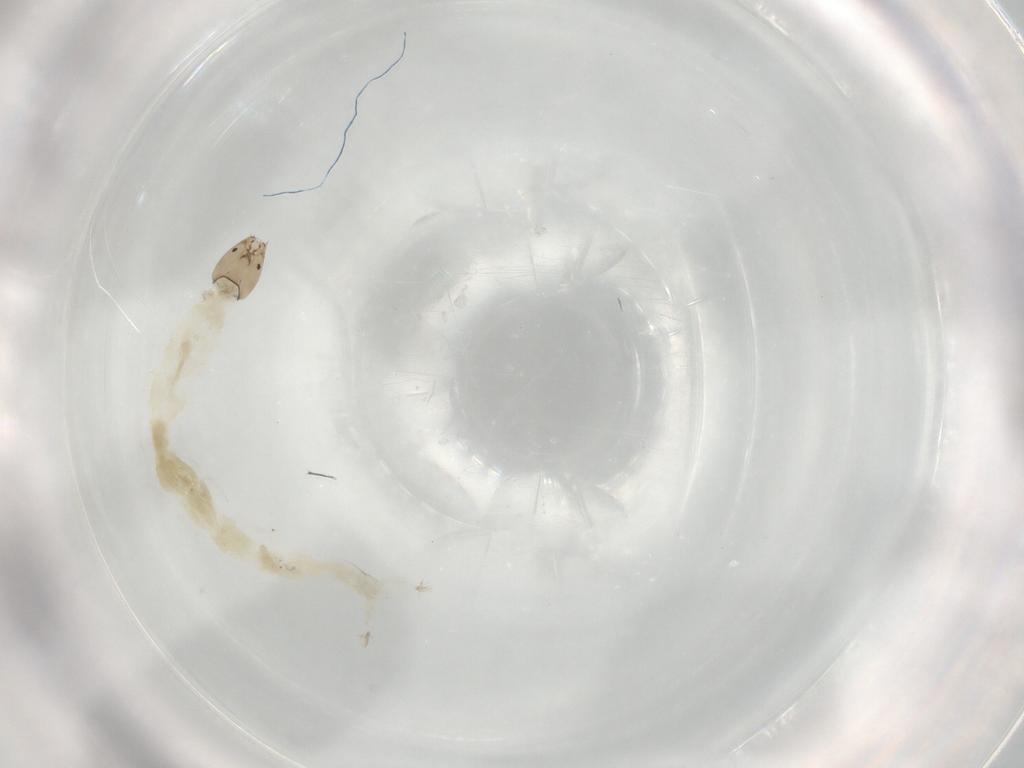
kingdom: Animalia
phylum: Arthropoda
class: Insecta
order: Diptera
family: Chironomidae
